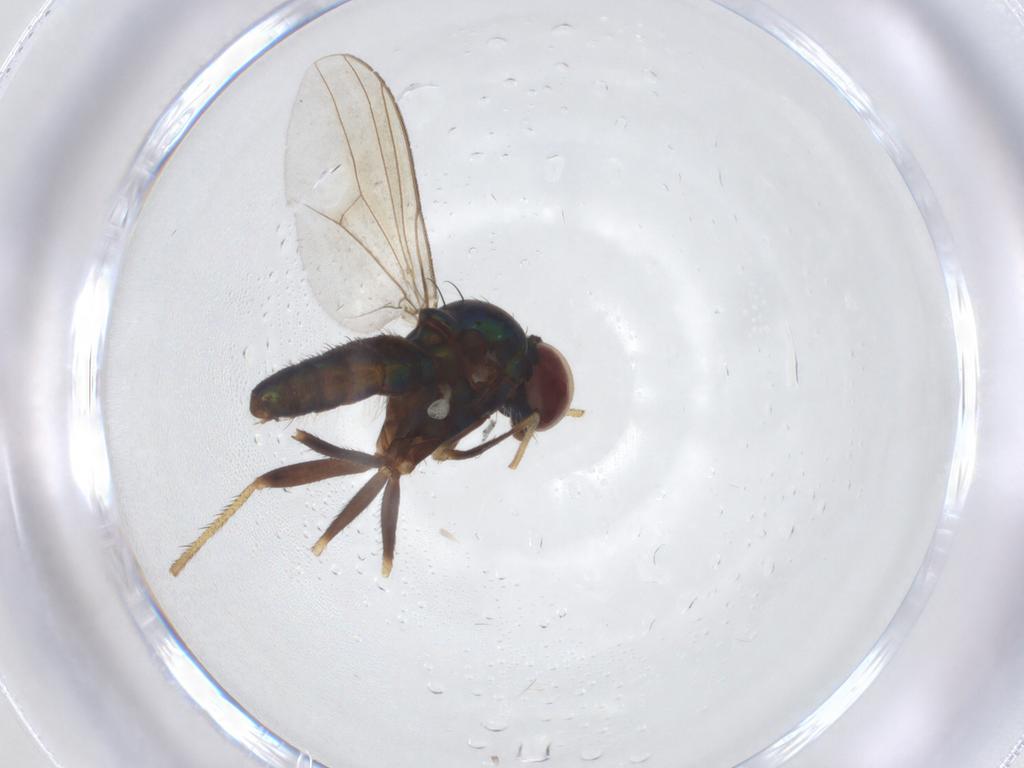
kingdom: Animalia
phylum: Arthropoda
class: Insecta
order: Diptera
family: Dolichopodidae
